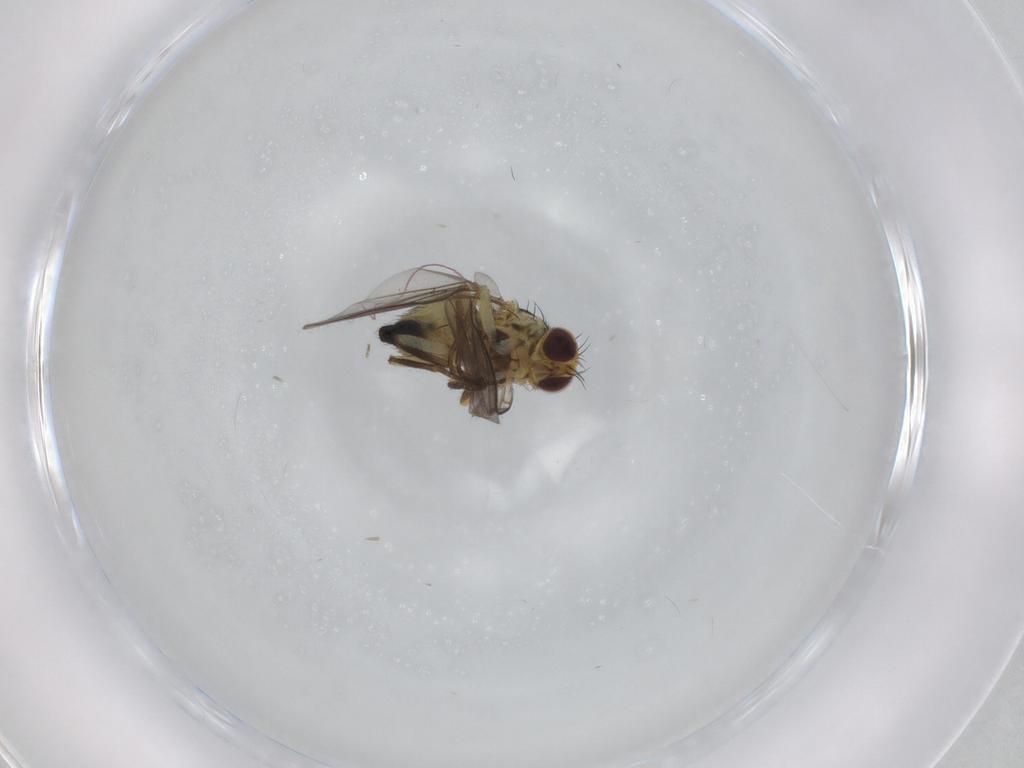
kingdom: Animalia
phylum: Arthropoda
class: Insecta
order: Diptera
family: Agromyzidae
